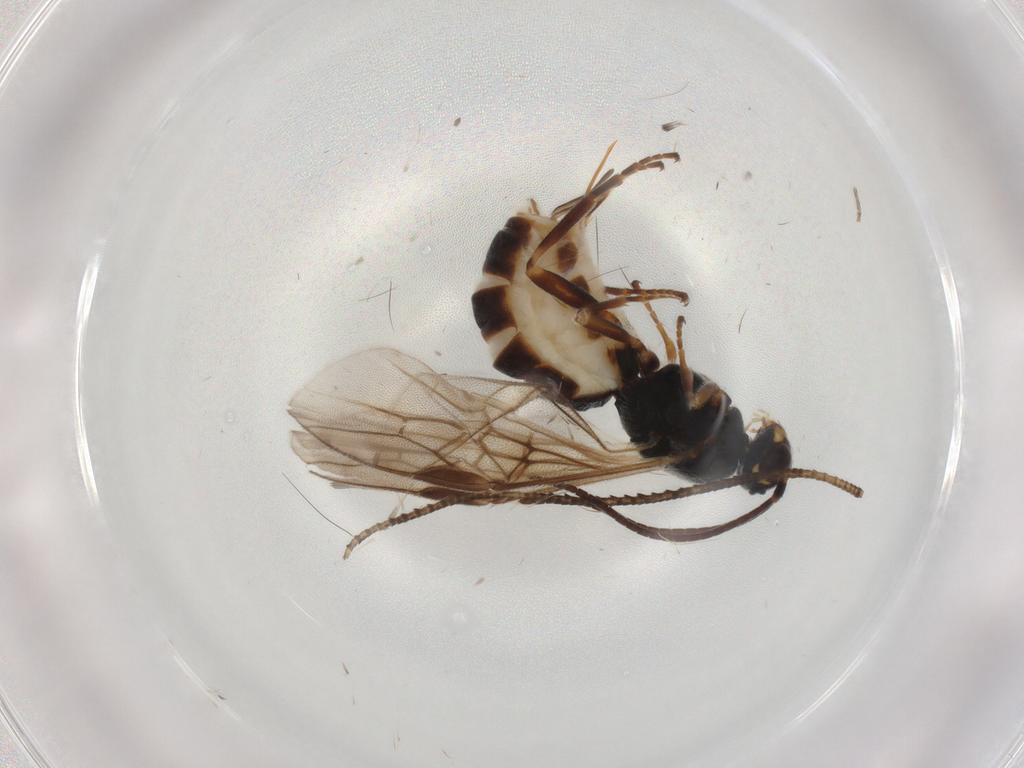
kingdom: Animalia
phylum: Arthropoda
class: Insecta
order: Hymenoptera
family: Braconidae
